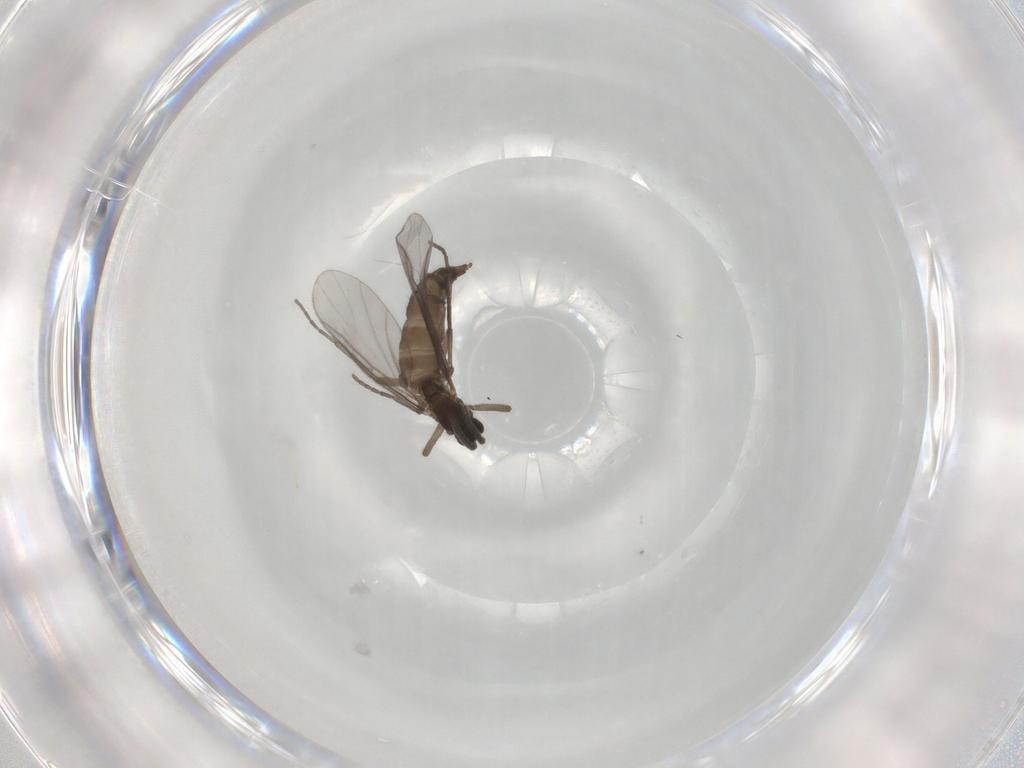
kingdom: Animalia
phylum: Arthropoda
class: Insecta
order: Diptera
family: Sciaridae
